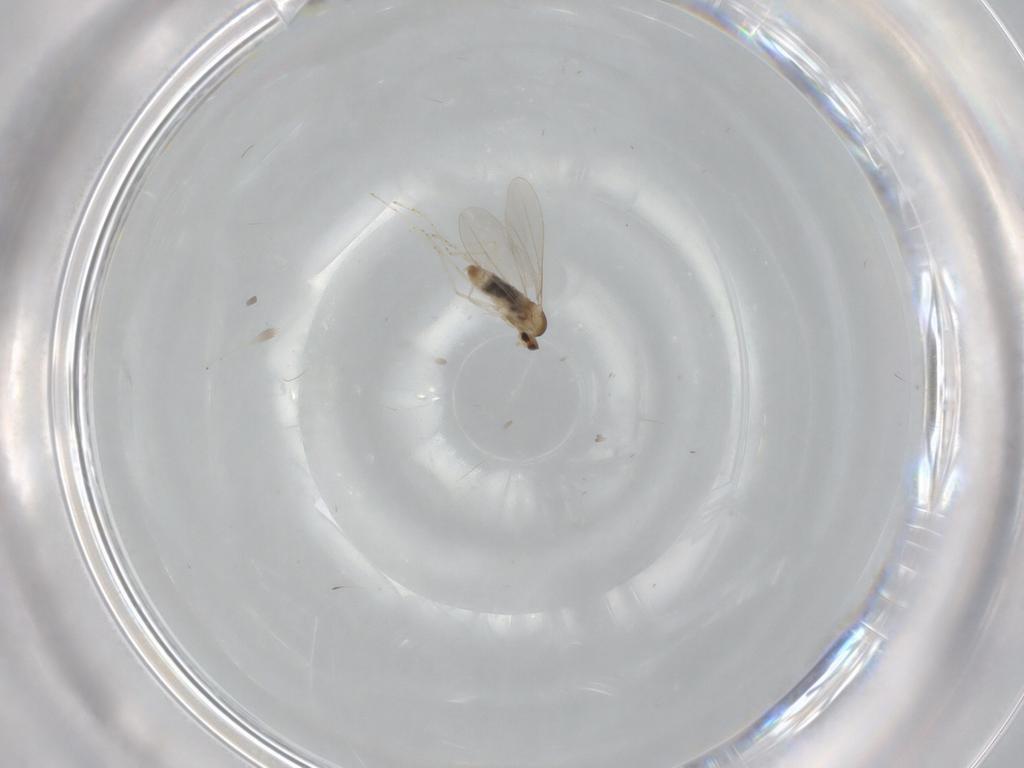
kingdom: Animalia
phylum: Arthropoda
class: Insecta
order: Diptera
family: Cecidomyiidae
